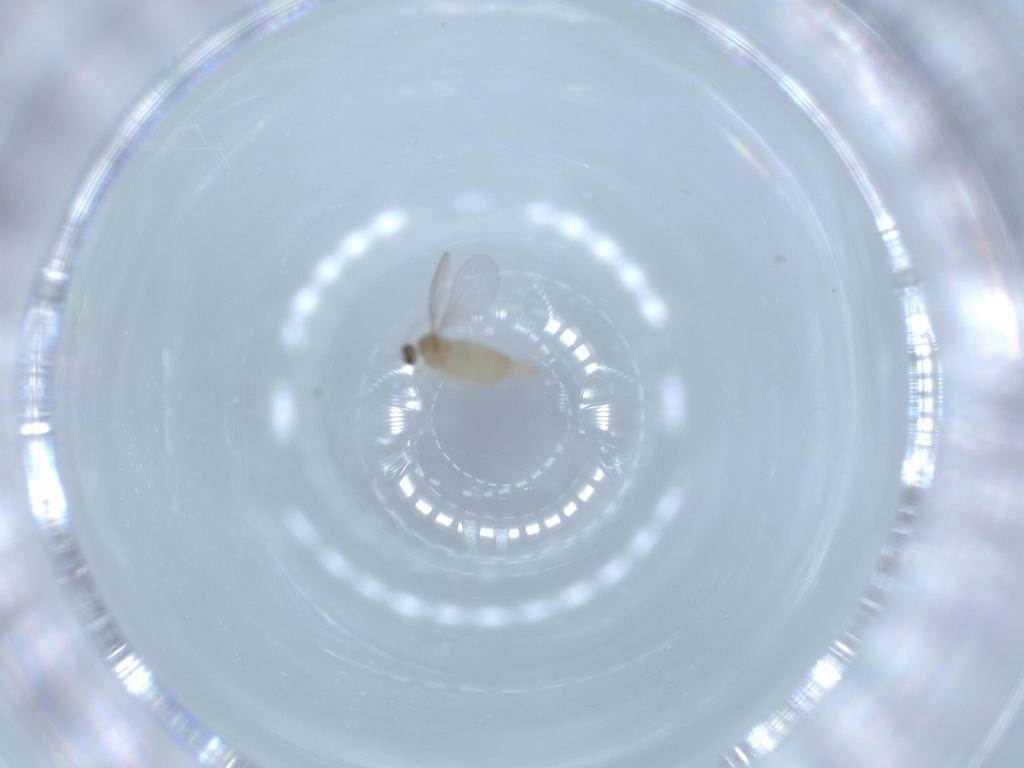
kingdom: Animalia
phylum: Arthropoda
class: Insecta
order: Diptera
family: Cecidomyiidae
